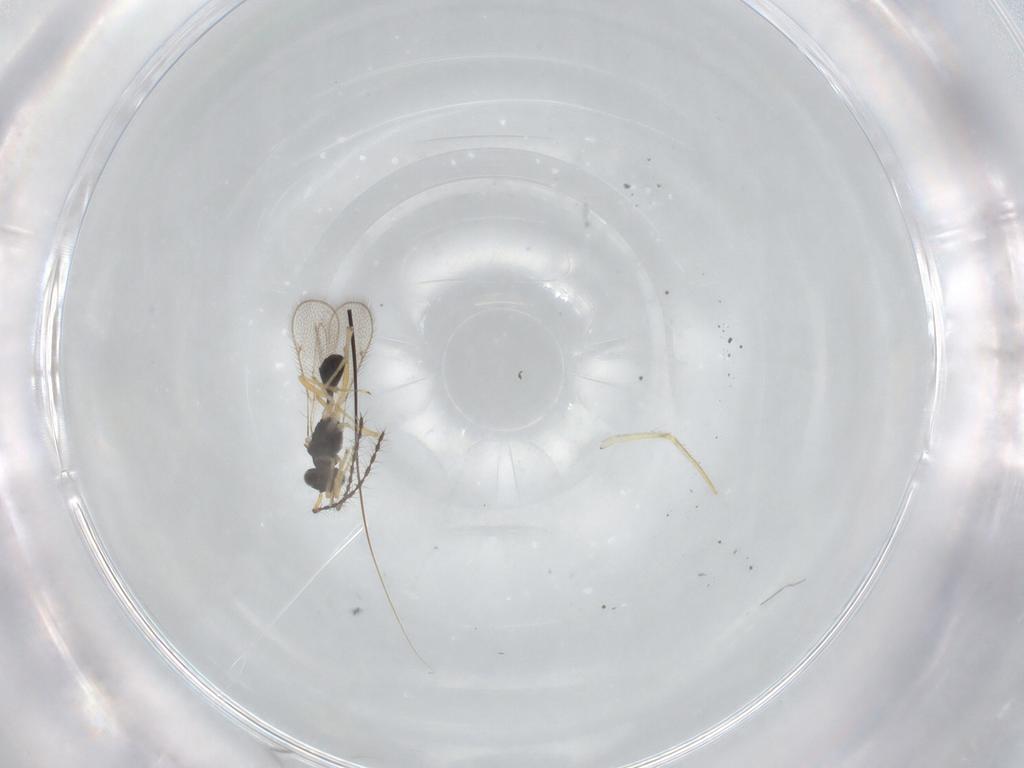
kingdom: Animalia
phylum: Arthropoda
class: Insecta
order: Hymenoptera
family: Diparidae
